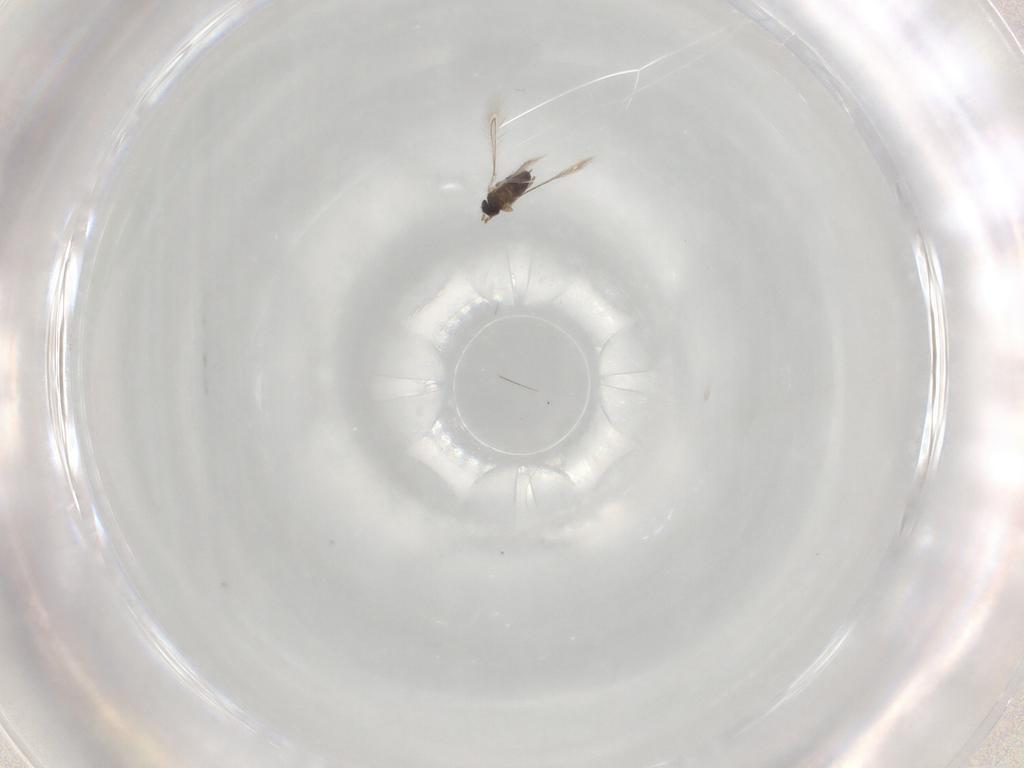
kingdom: Animalia
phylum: Arthropoda
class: Insecta
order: Hymenoptera
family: Mymaridae
